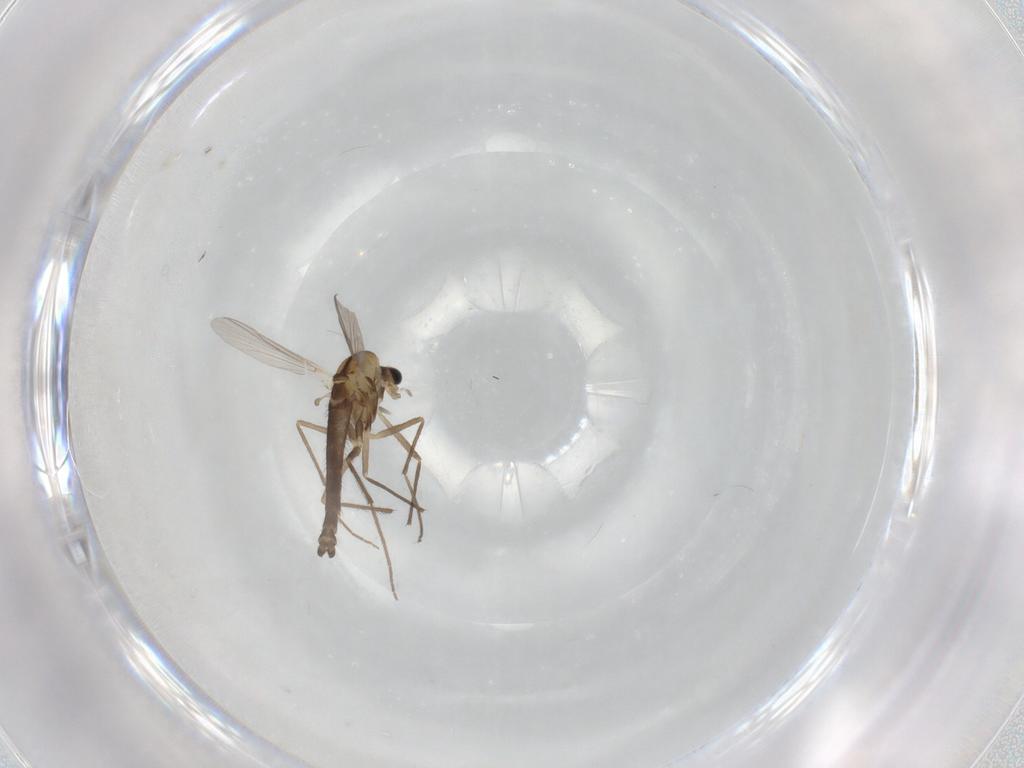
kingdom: Animalia
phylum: Arthropoda
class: Insecta
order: Diptera
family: Chironomidae
